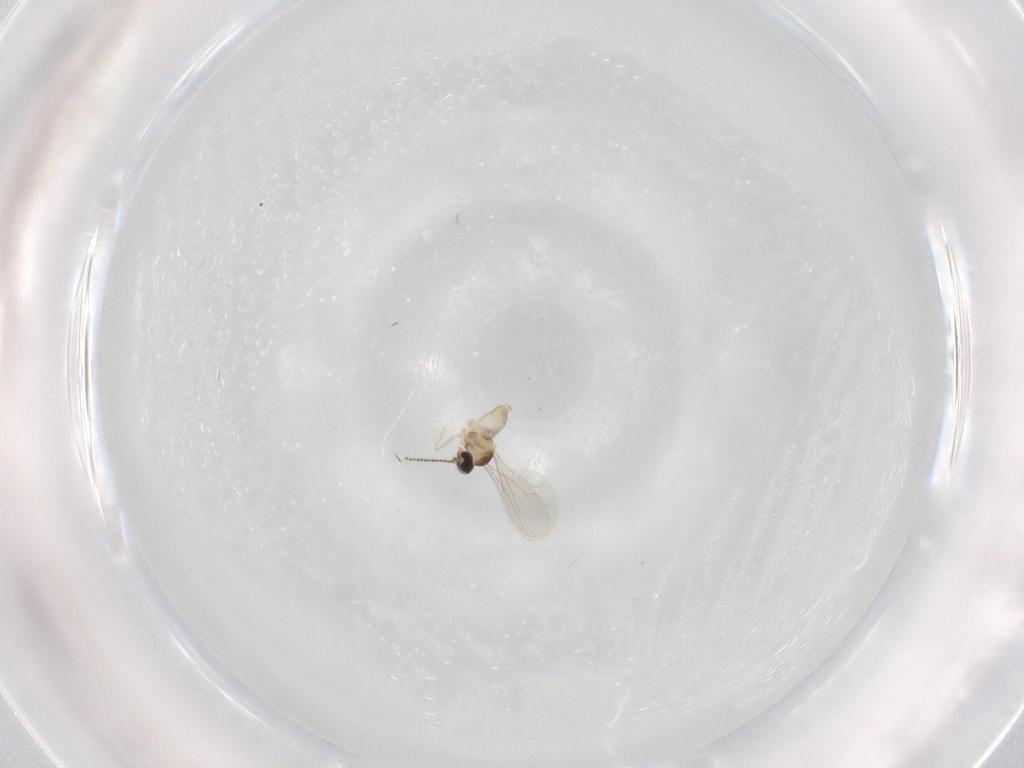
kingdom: Animalia
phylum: Arthropoda
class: Insecta
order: Diptera
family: Cecidomyiidae
